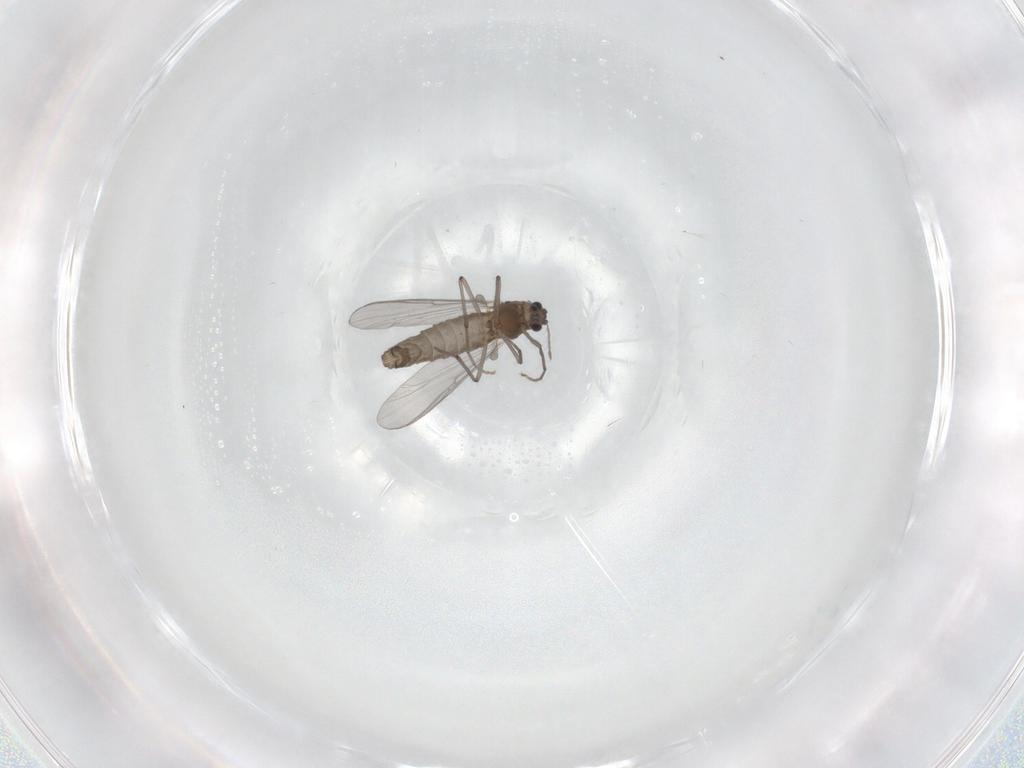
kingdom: Animalia
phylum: Arthropoda
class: Insecta
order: Diptera
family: Chironomidae
